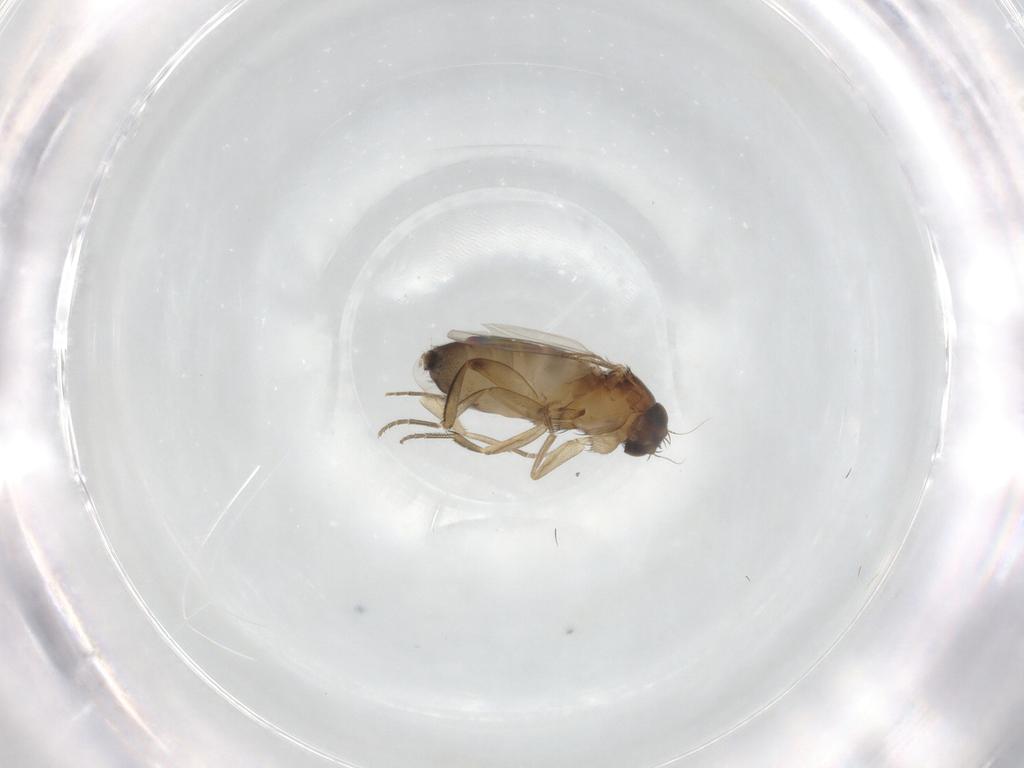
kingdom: Animalia
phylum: Arthropoda
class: Insecta
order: Diptera
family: Phoridae
